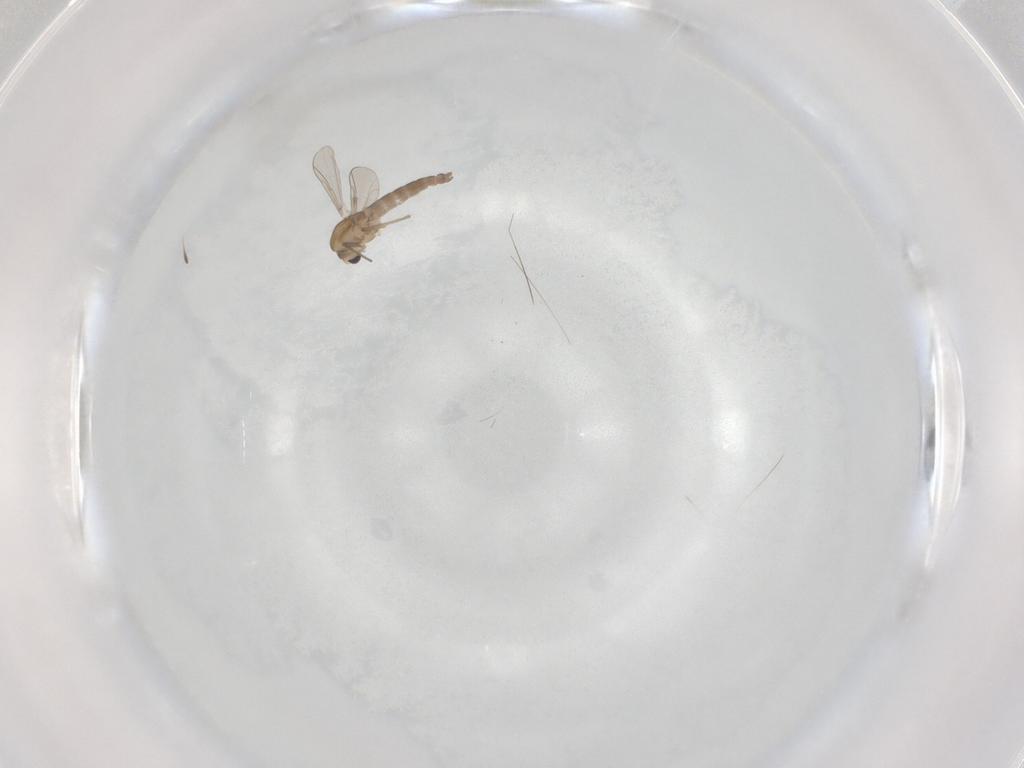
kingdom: Animalia
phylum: Arthropoda
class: Insecta
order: Diptera
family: Chironomidae
